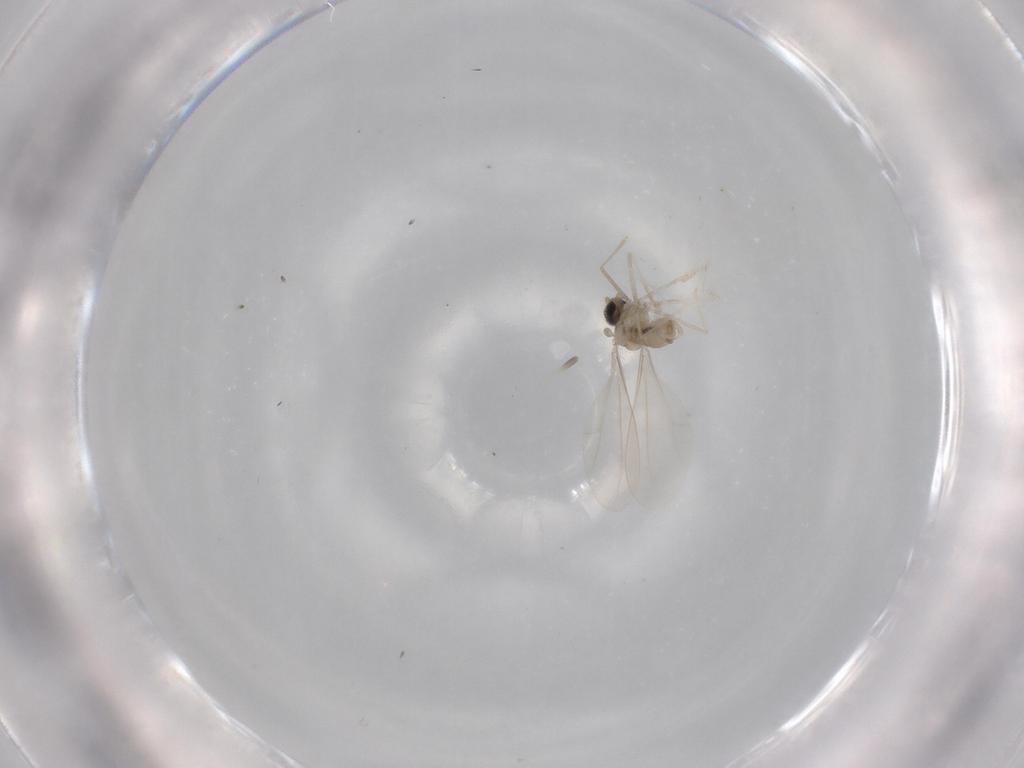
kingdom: Animalia
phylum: Arthropoda
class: Insecta
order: Diptera
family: Cecidomyiidae
